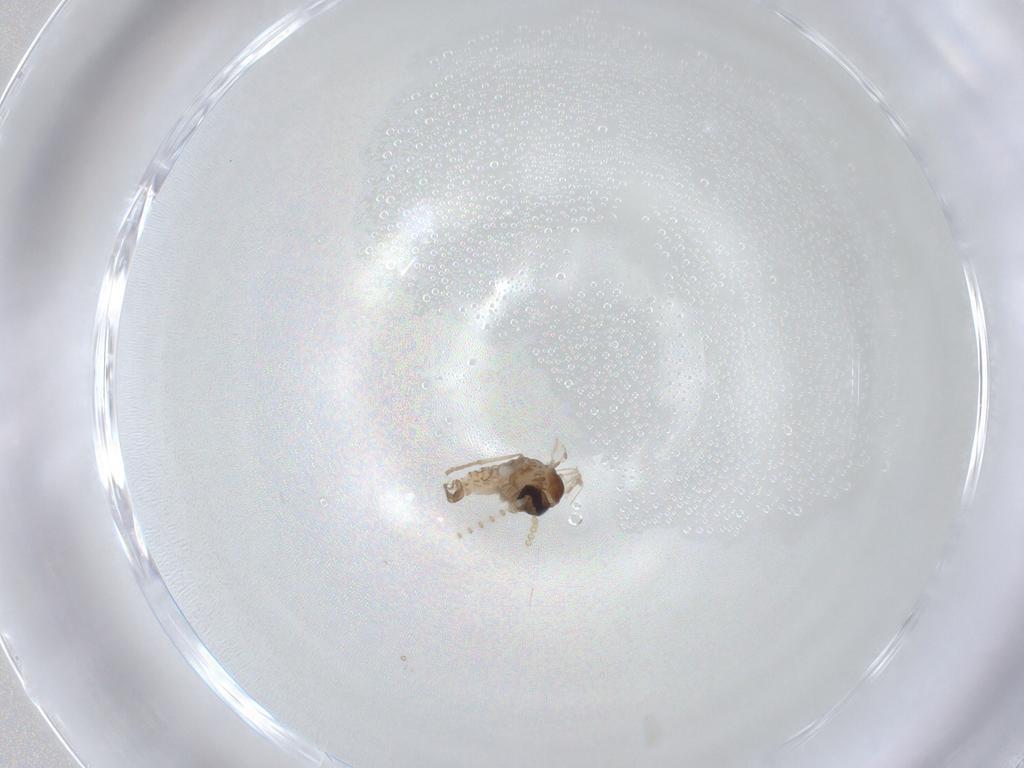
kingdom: Animalia
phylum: Arthropoda
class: Insecta
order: Diptera
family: Psychodidae
